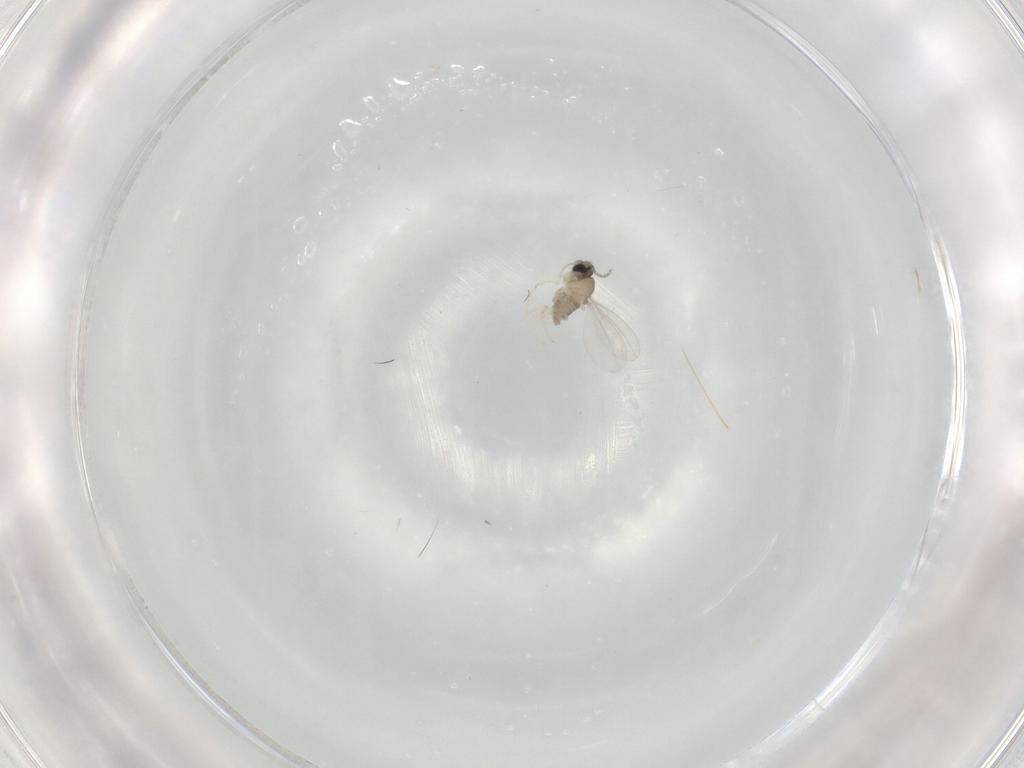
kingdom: Animalia
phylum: Arthropoda
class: Insecta
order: Diptera
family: Cecidomyiidae
